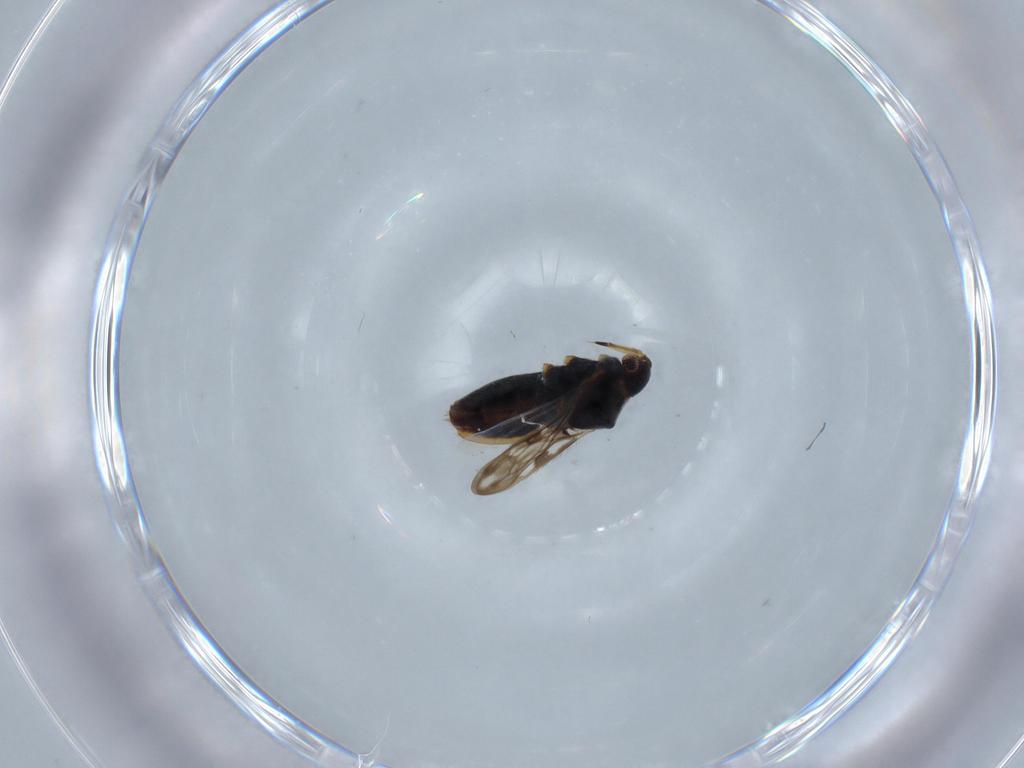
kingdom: Animalia
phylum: Arthropoda
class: Insecta
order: Hemiptera
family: Veliidae
